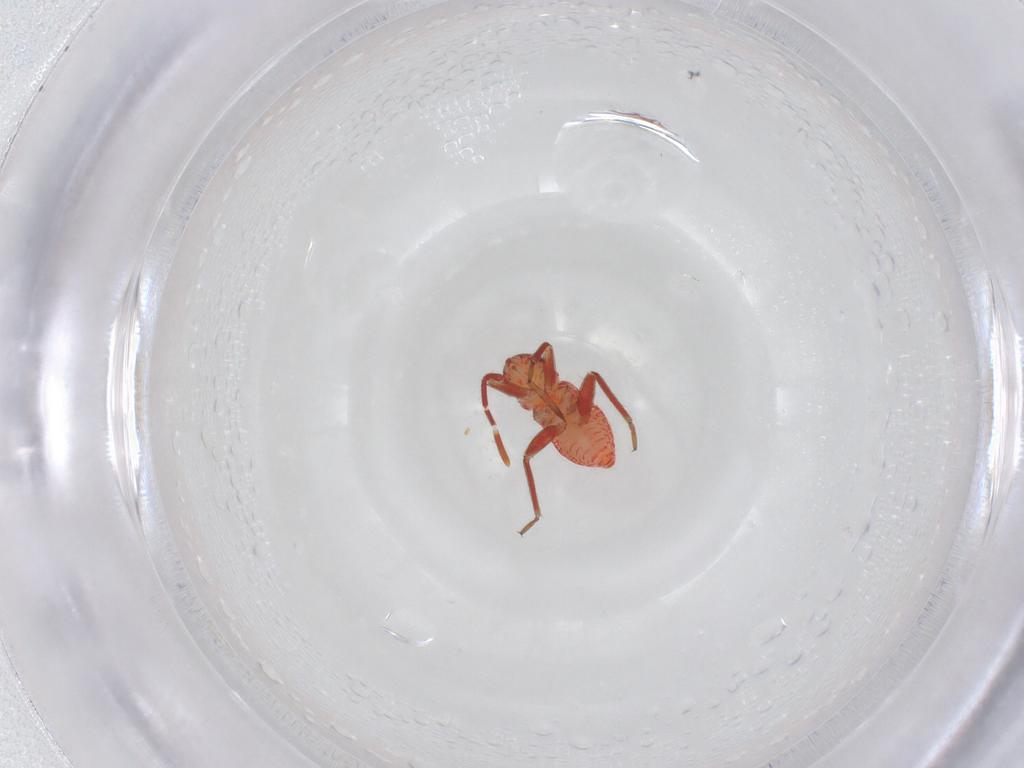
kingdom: Animalia
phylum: Arthropoda
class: Insecta
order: Hemiptera
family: Miridae
